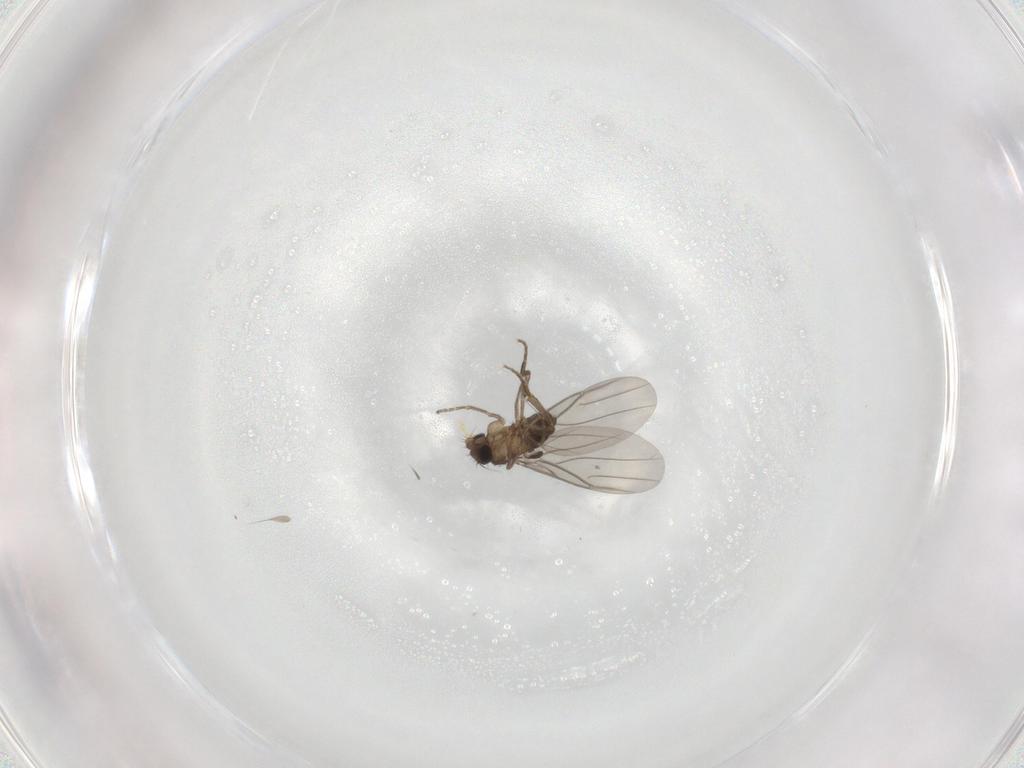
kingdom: Animalia
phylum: Arthropoda
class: Insecta
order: Diptera
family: Phoridae
